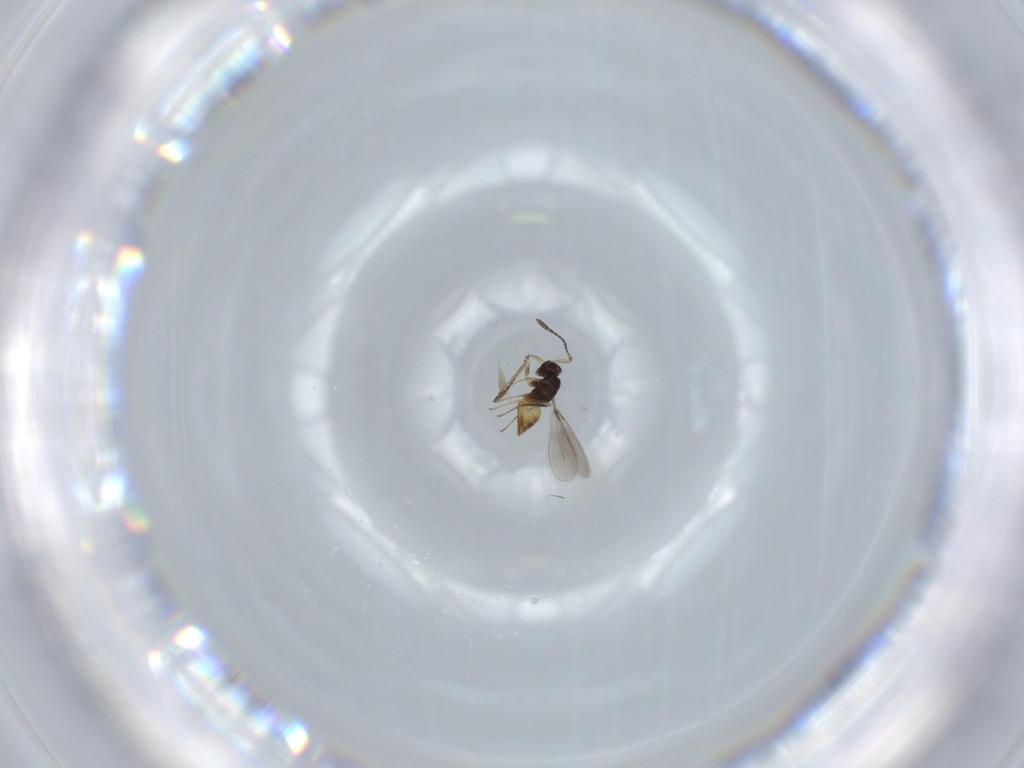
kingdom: Animalia
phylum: Arthropoda
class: Insecta
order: Hymenoptera
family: Mymaridae
